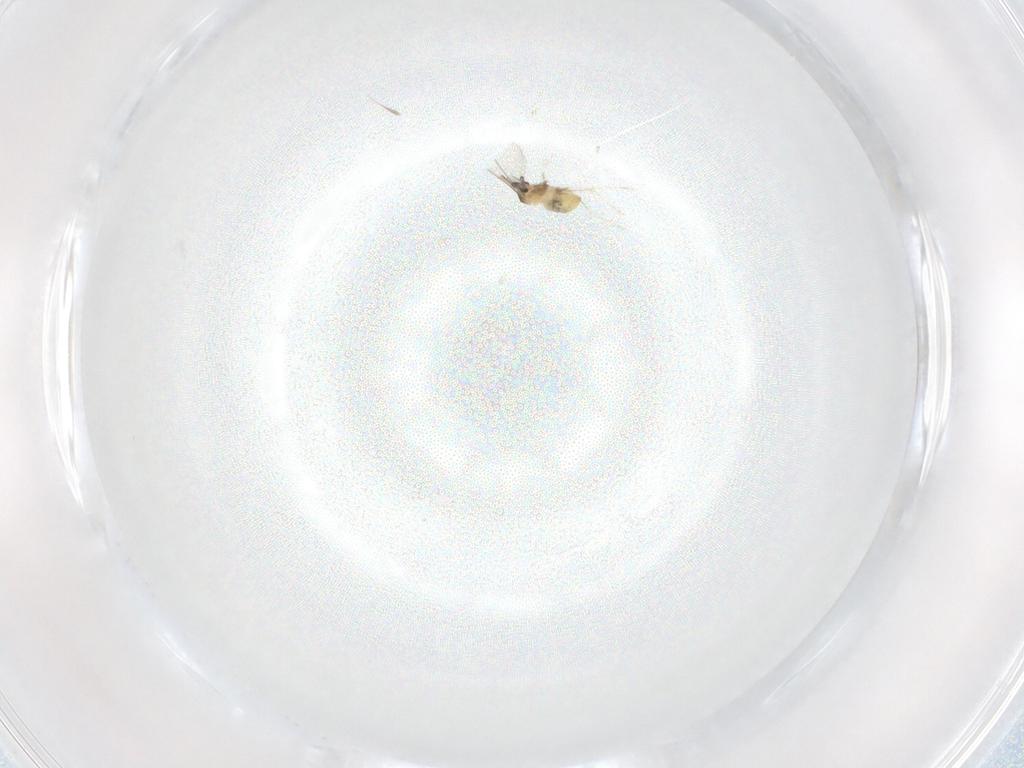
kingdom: Animalia
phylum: Arthropoda
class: Insecta
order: Diptera
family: Cecidomyiidae
